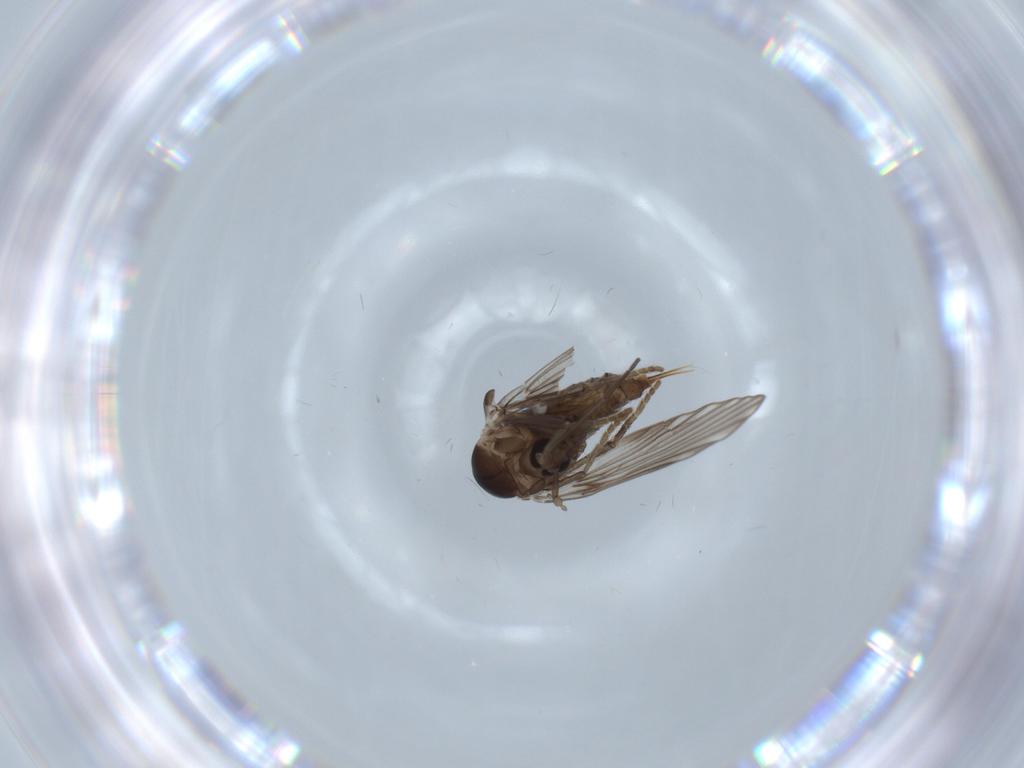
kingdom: Animalia
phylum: Arthropoda
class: Insecta
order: Diptera
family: Psychodidae
